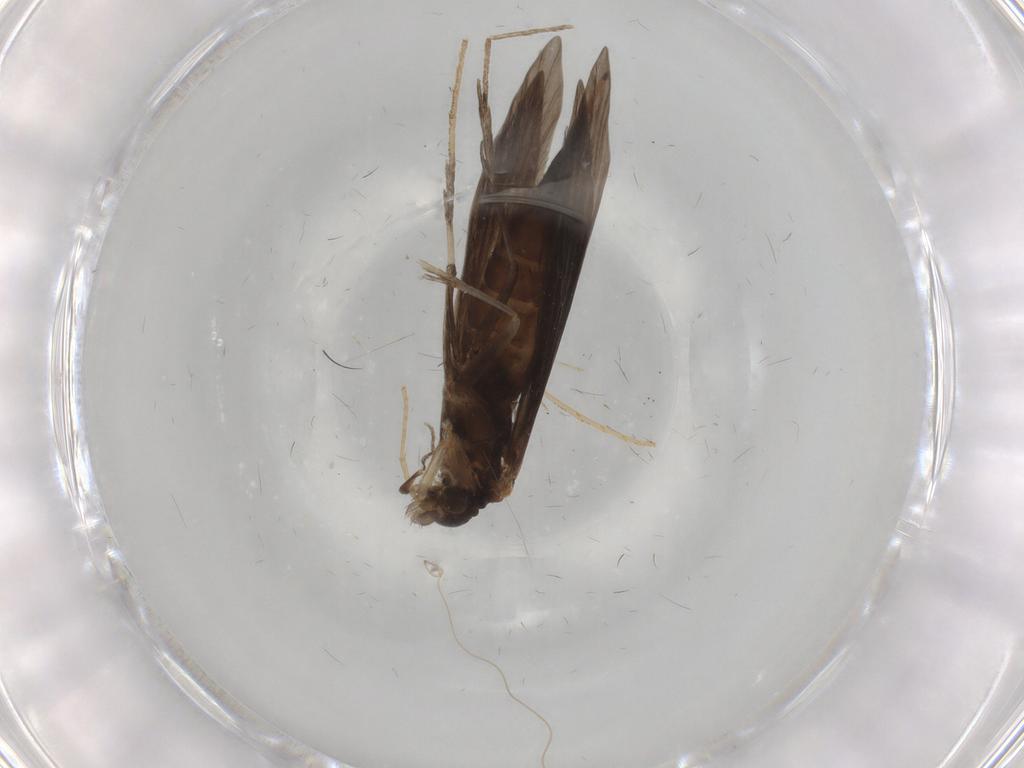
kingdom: Animalia
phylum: Arthropoda
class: Insecta
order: Trichoptera
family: Xiphocentronidae
